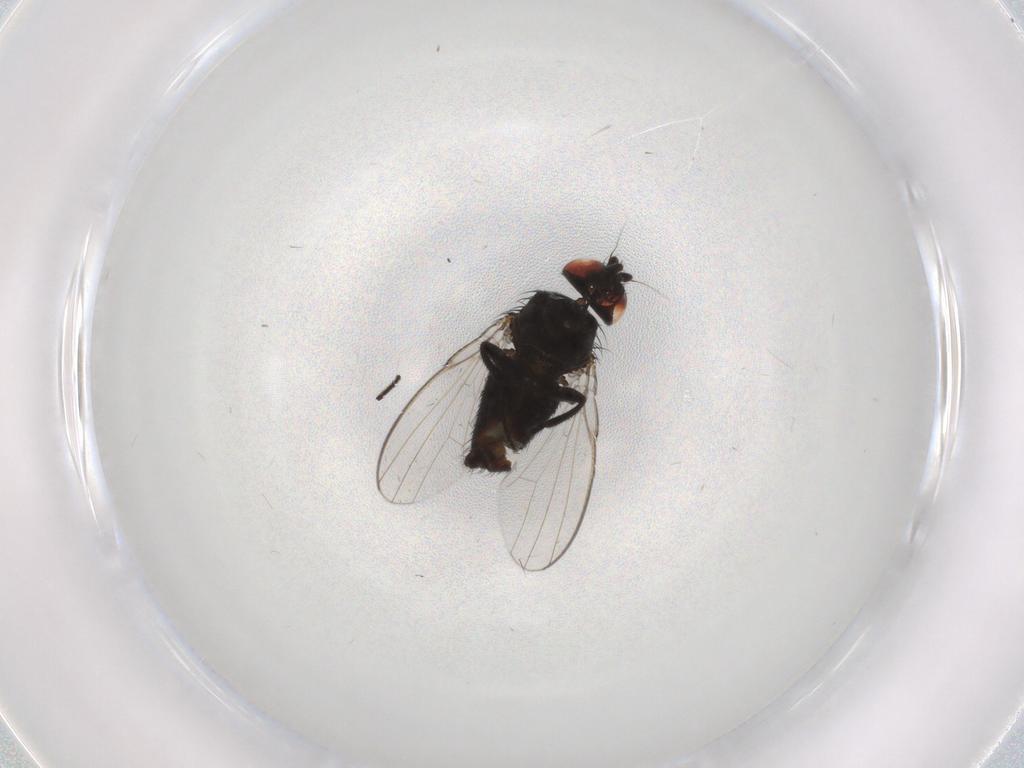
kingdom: Animalia
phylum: Arthropoda
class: Insecta
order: Diptera
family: Milichiidae
